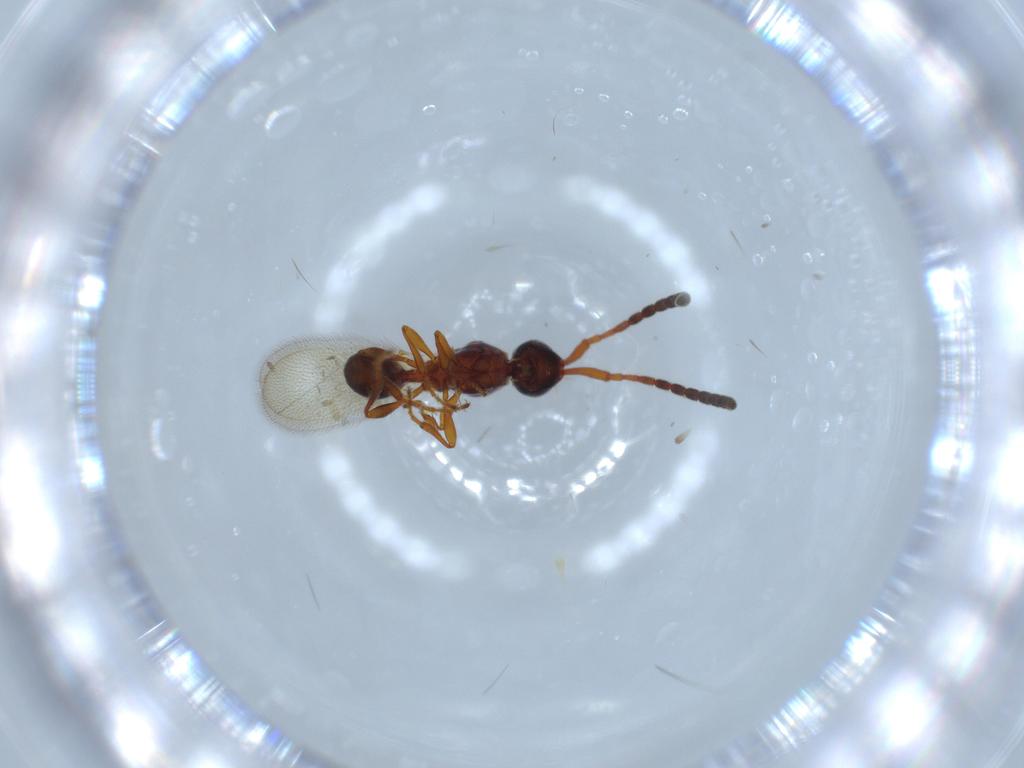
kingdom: Animalia
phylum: Arthropoda
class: Insecta
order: Hymenoptera
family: Diapriidae
